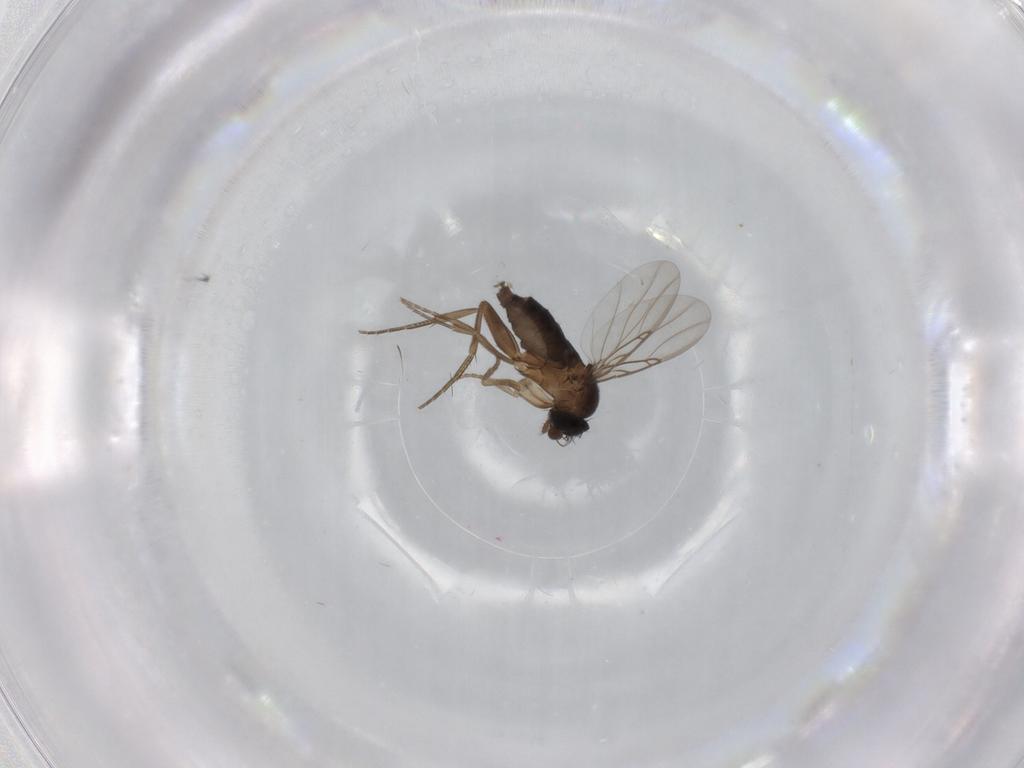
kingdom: Animalia
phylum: Arthropoda
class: Insecta
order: Diptera
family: Phoridae
